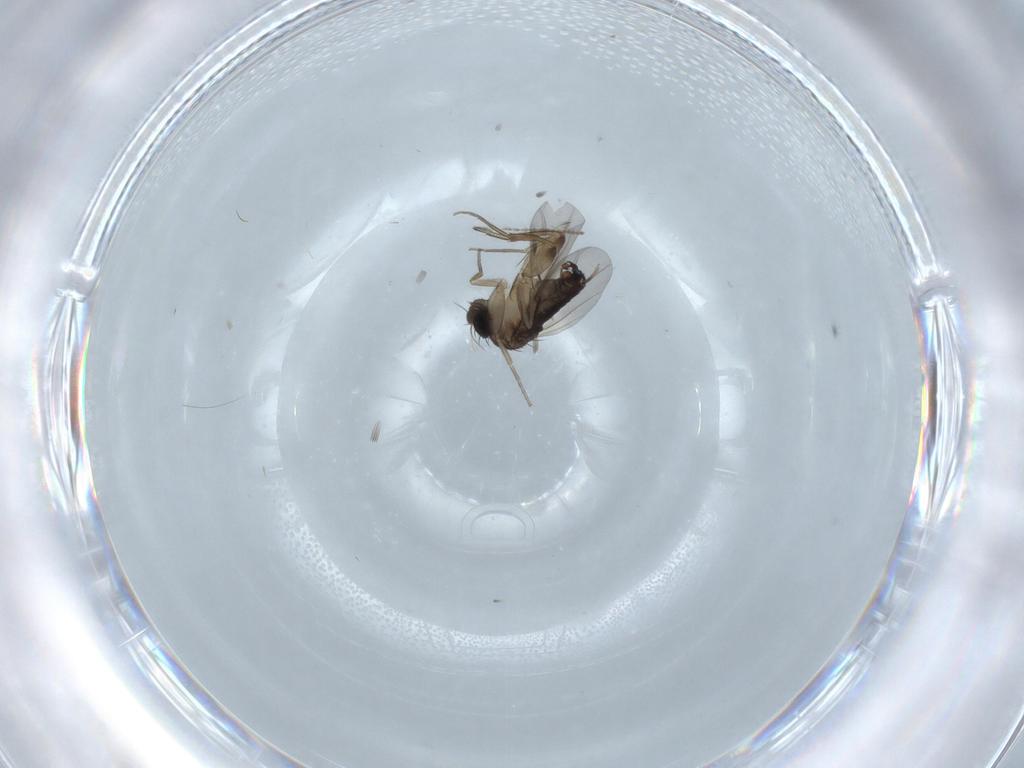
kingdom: Animalia
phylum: Arthropoda
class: Insecta
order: Diptera
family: Phoridae
